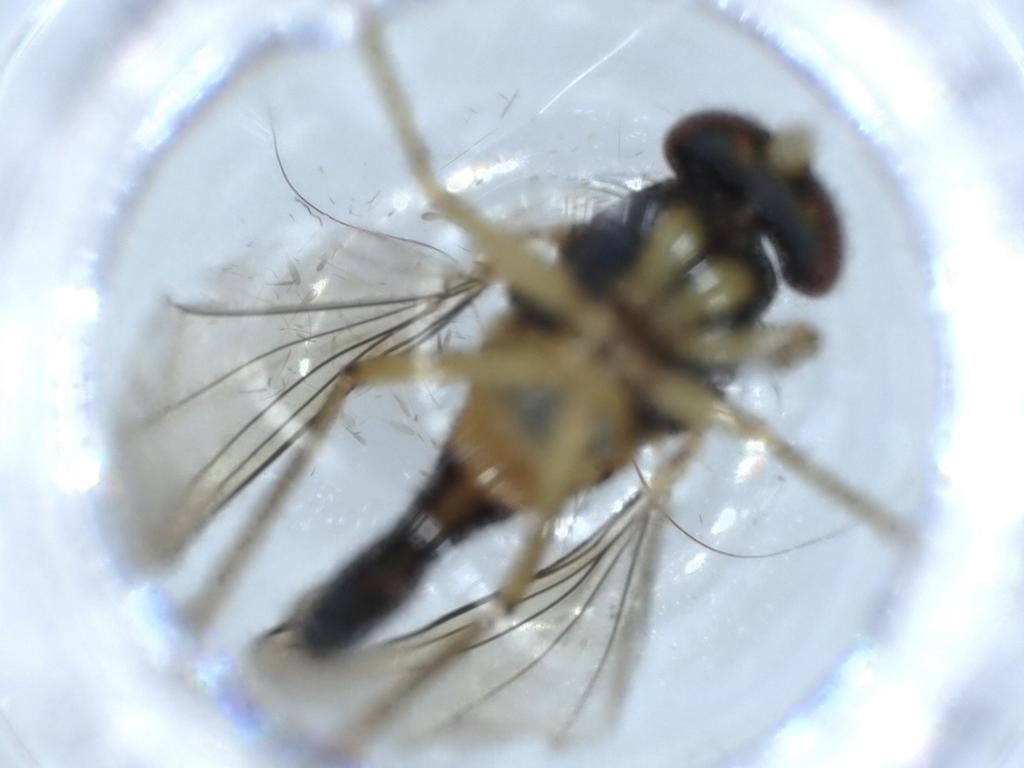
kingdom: Animalia
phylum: Arthropoda
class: Insecta
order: Diptera
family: Dolichopodidae
